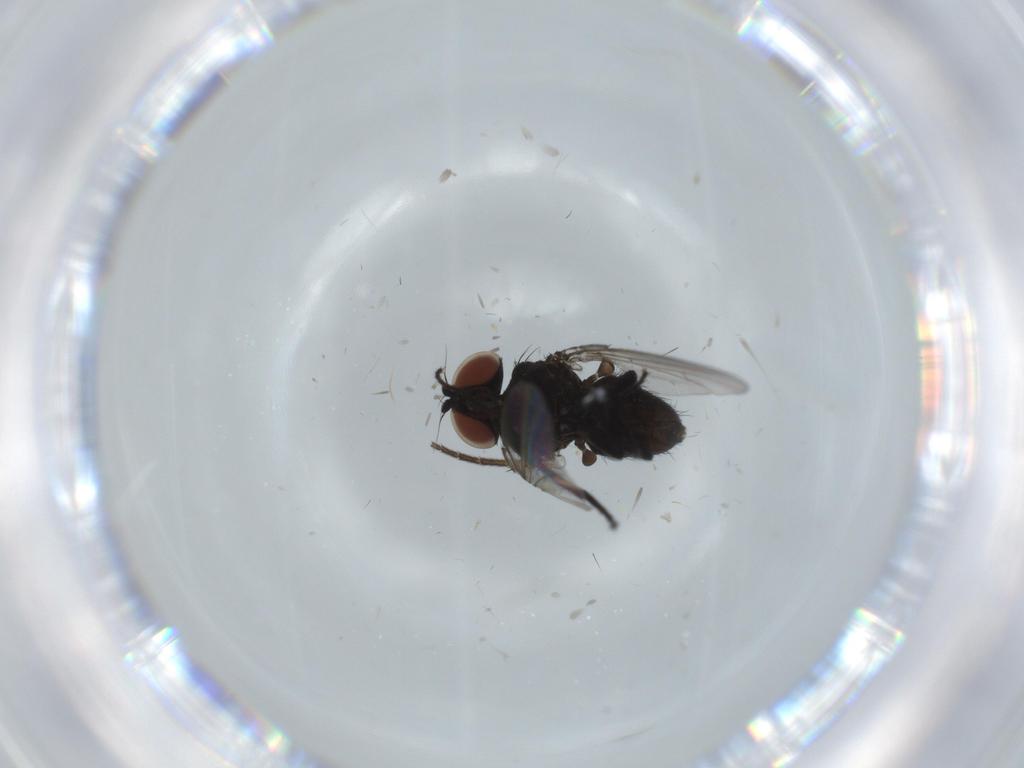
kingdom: Animalia
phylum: Arthropoda
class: Insecta
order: Diptera
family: Milichiidae
